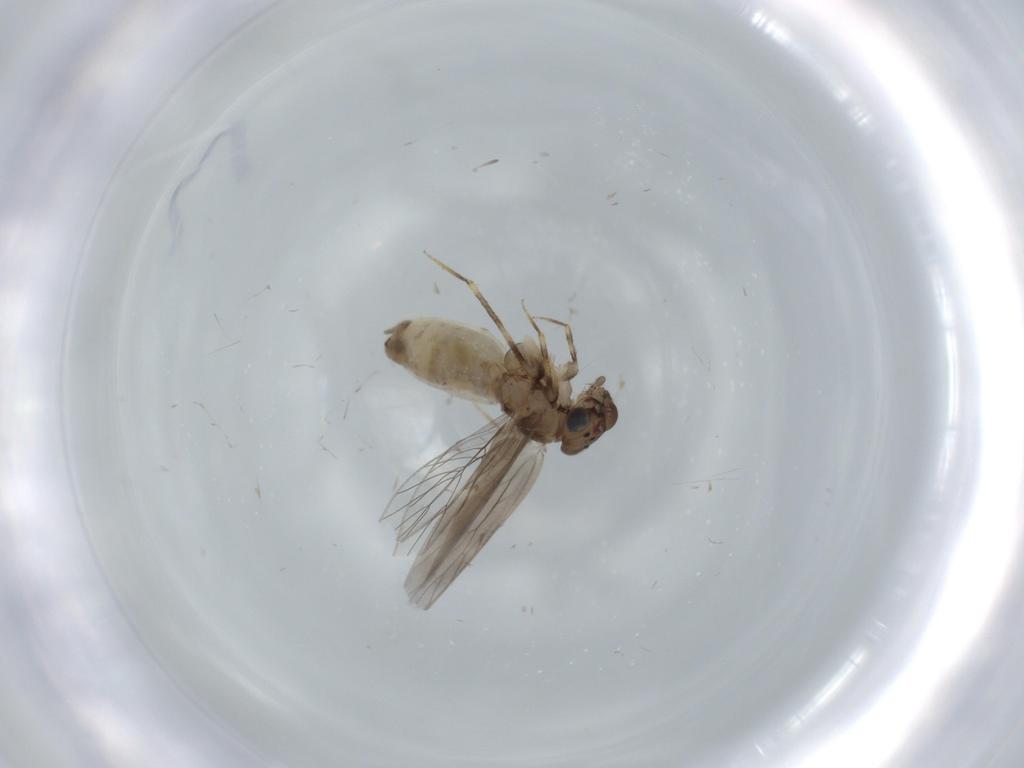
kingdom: Animalia
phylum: Arthropoda
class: Insecta
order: Psocodea
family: Lepidopsocidae
